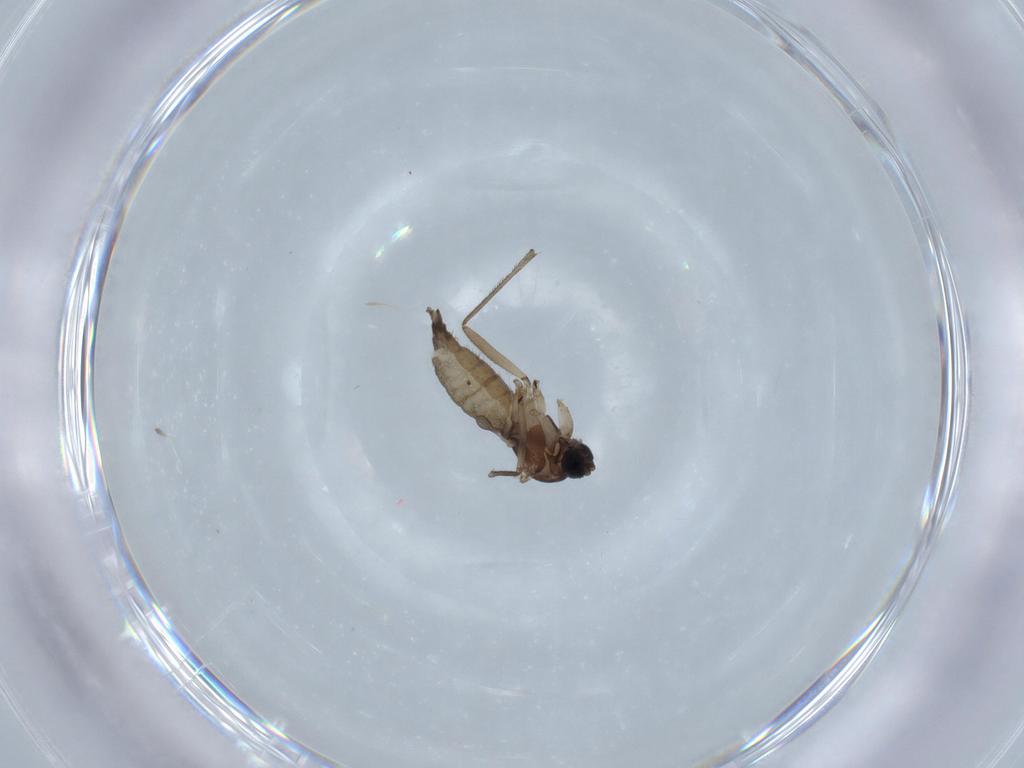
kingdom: Animalia
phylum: Arthropoda
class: Insecta
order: Diptera
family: Sciaridae
